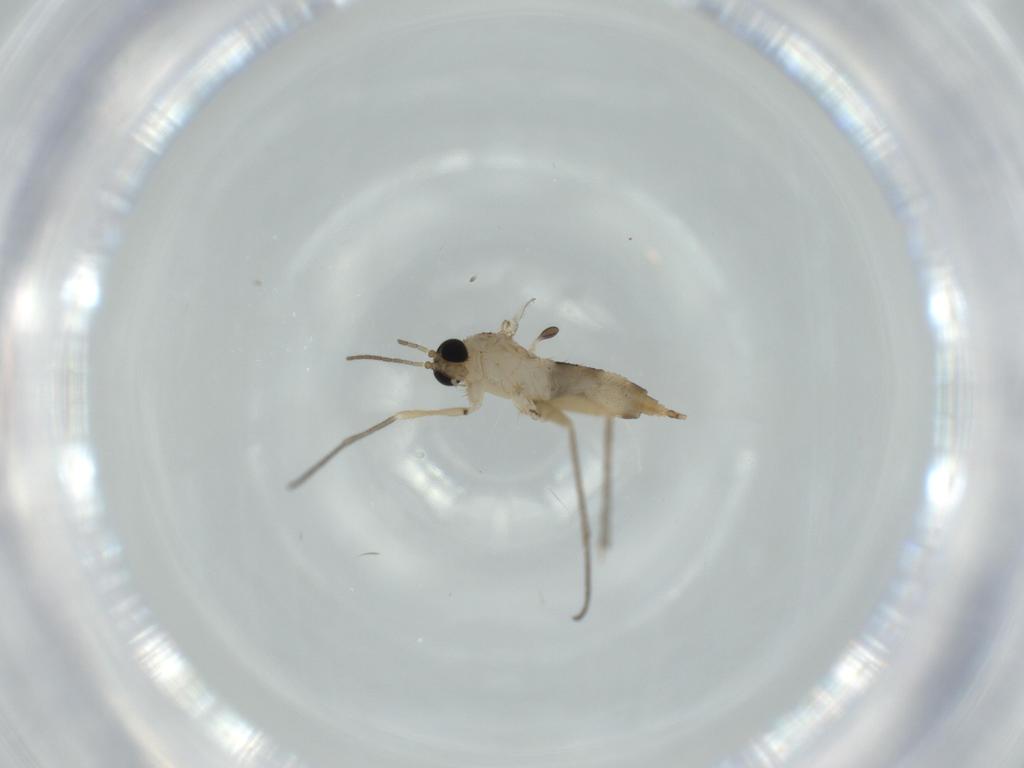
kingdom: Animalia
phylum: Arthropoda
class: Insecta
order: Diptera
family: Sciaridae
